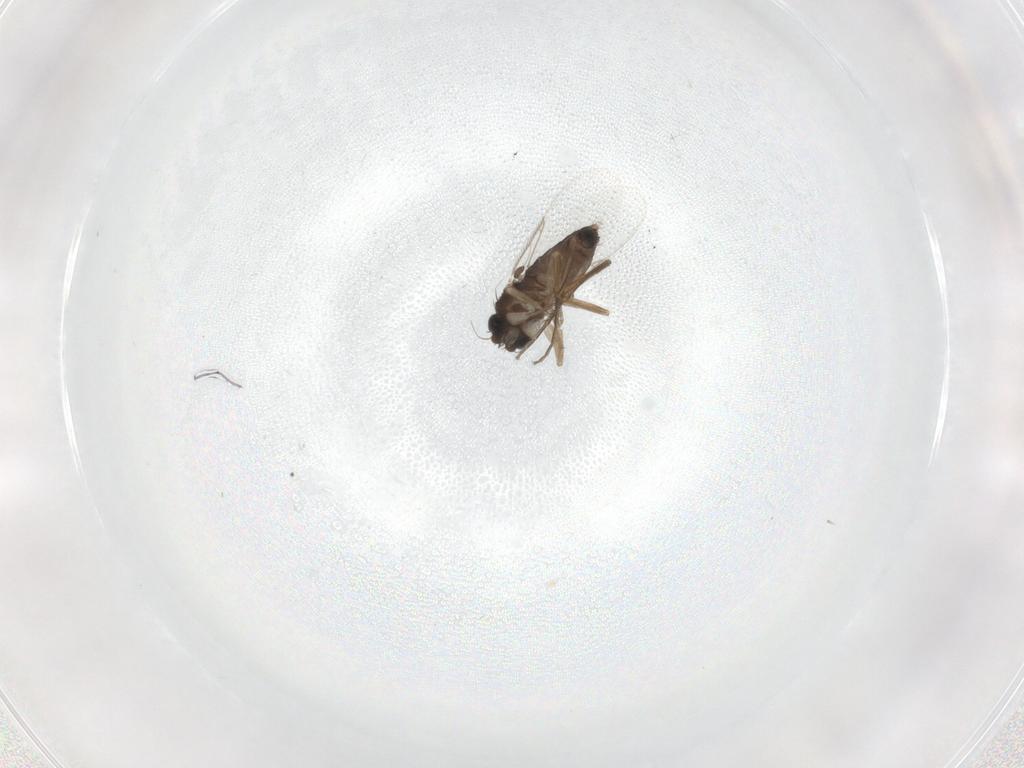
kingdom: Animalia
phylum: Arthropoda
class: Insecta
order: Diptera
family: Phoridae
